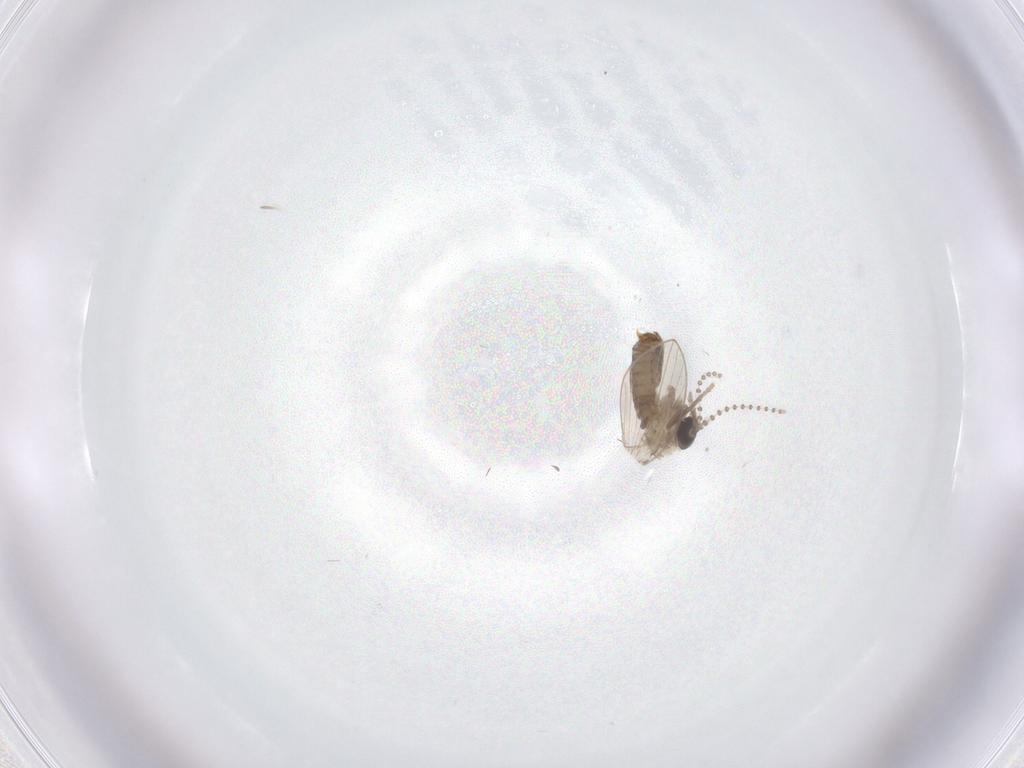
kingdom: Animalia
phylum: Arthropoda
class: Insecta
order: Diptera
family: Psychodidae
